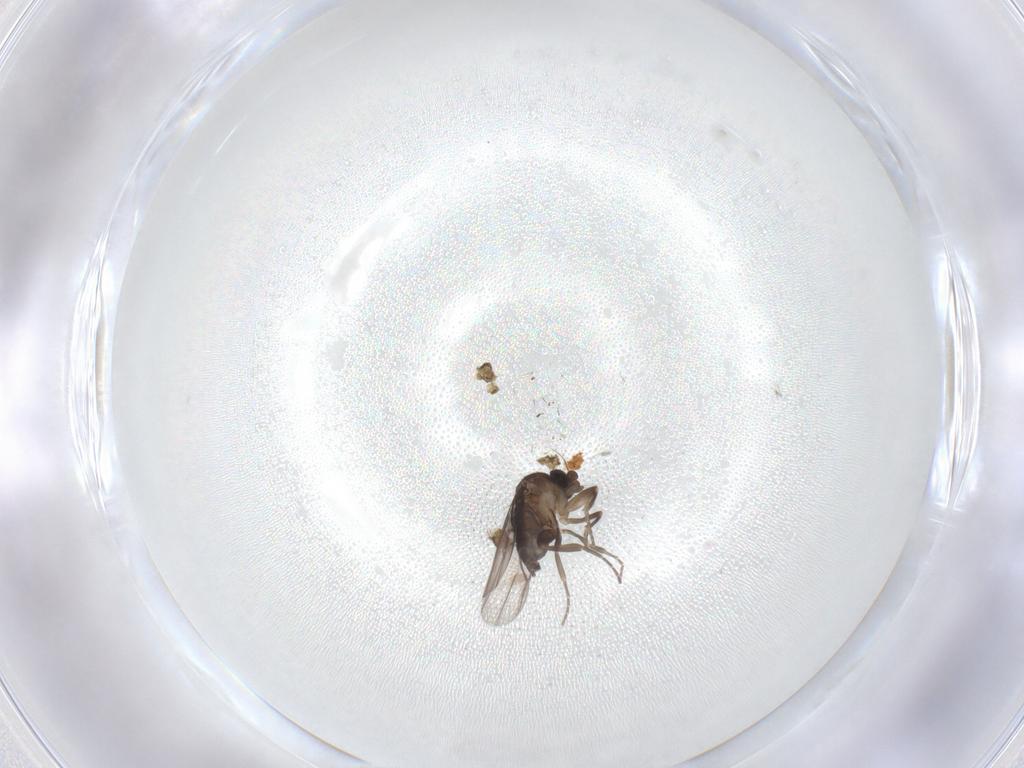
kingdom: Animalia
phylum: Arthropoda
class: Insecta
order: Diptera
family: Phoridae
